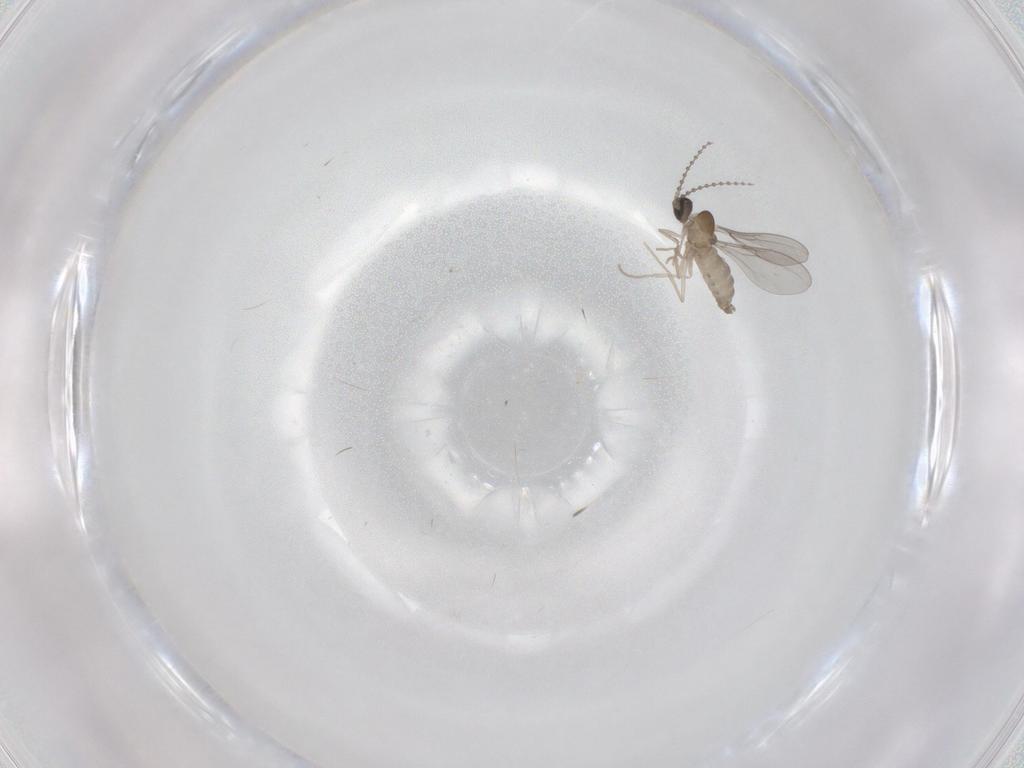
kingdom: Animalia
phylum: Arthropoda
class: Insecta
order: Diptera
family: Cecidomyiidae
